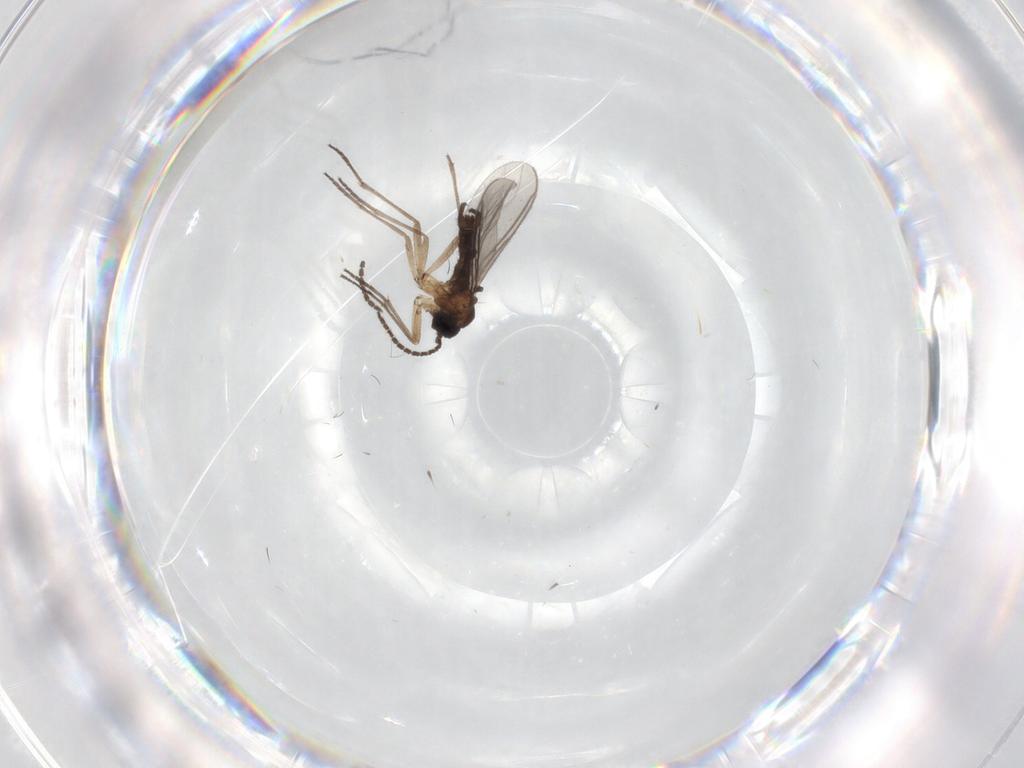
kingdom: Animalia
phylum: Arthropoda
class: Insecta
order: Diptera
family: Sciaridae
